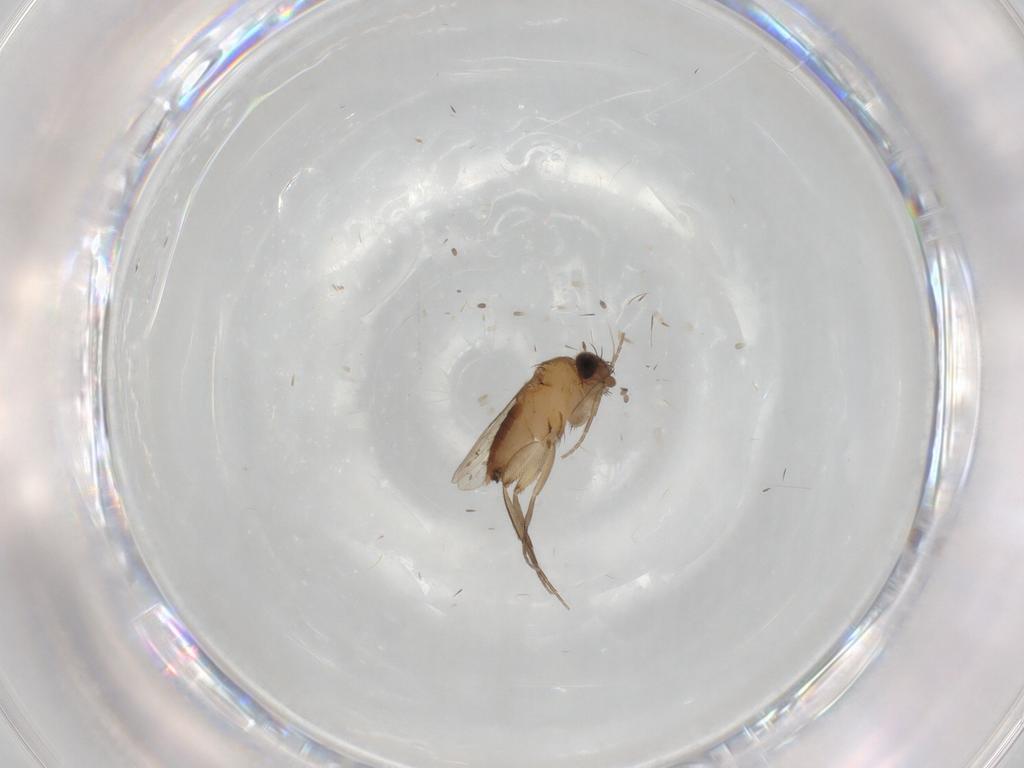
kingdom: Animalia
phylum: Arthropoda
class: Insecta
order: Diptera
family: Phoridae
